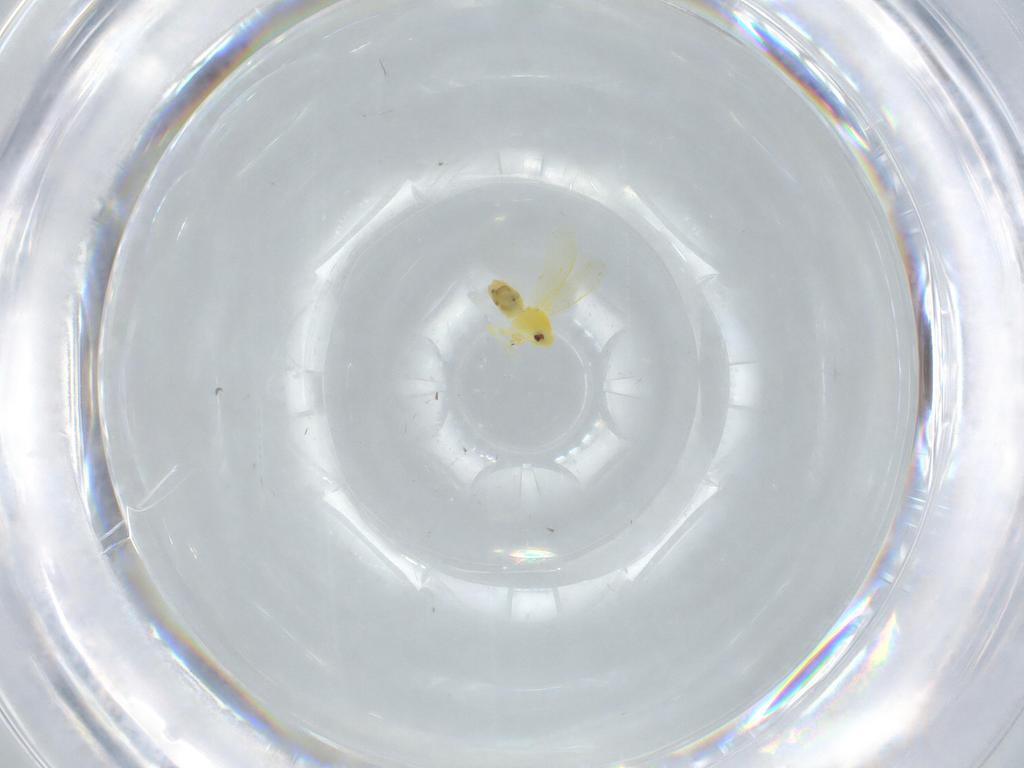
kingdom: Animalia
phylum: Arthropoda
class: Insecta
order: Hemiptera
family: Aleyrodidae
